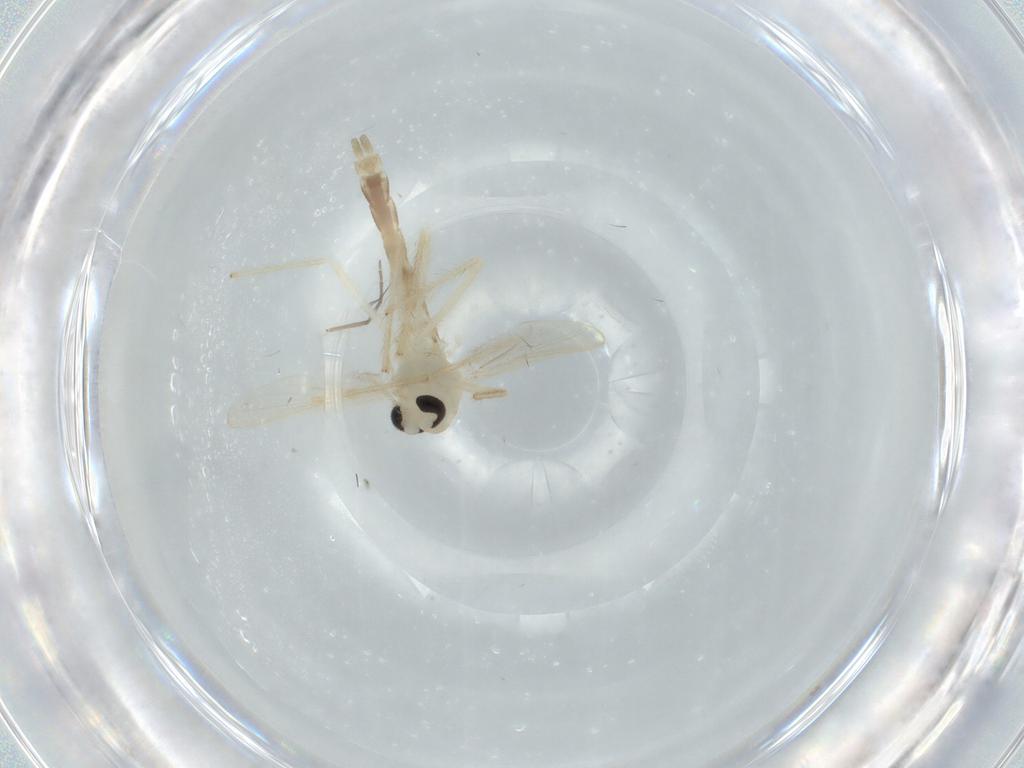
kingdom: Animalia
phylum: Arthropoda
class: Insecta
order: Diptera
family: Chironomidae
